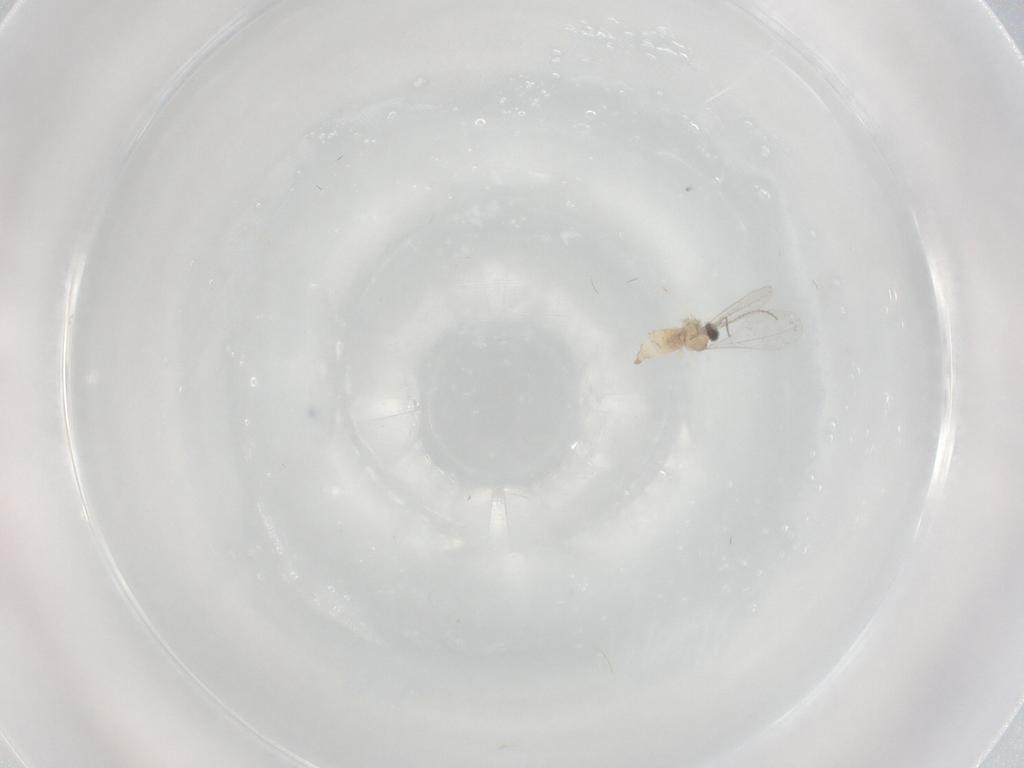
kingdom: Animalia
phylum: Arthropoda
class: Insecta
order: Diptera
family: Cecidomyiidae
